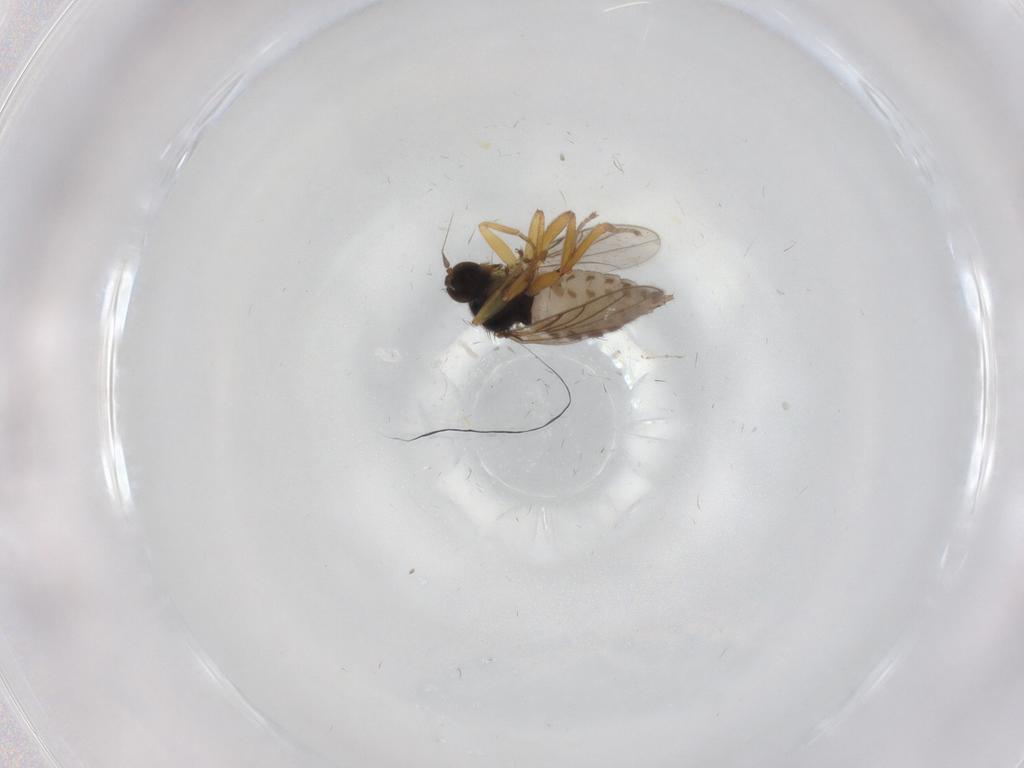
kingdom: Animalia
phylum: Arthropoda
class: Insecta
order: Diptera
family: Hybotidae
